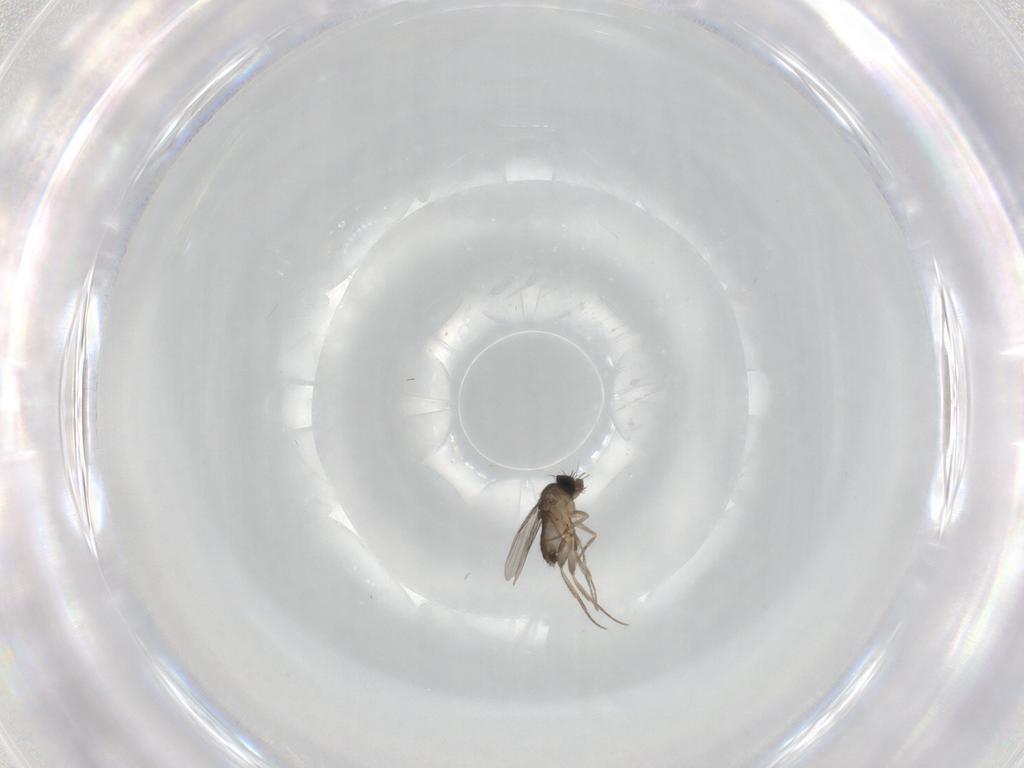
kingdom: Animalia
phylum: Arthropoda
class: Insecta
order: Diptera
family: Phoridae
